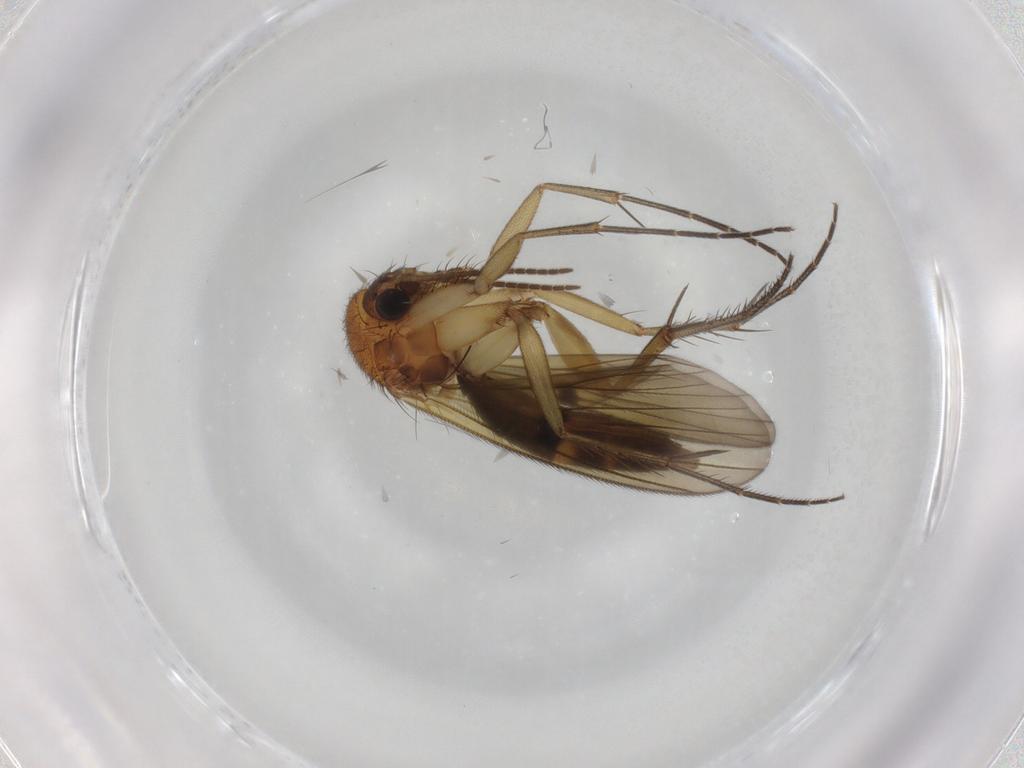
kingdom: Animalia
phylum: Arthropoda
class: Insecta
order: Diptera
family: Mycetophilidae
